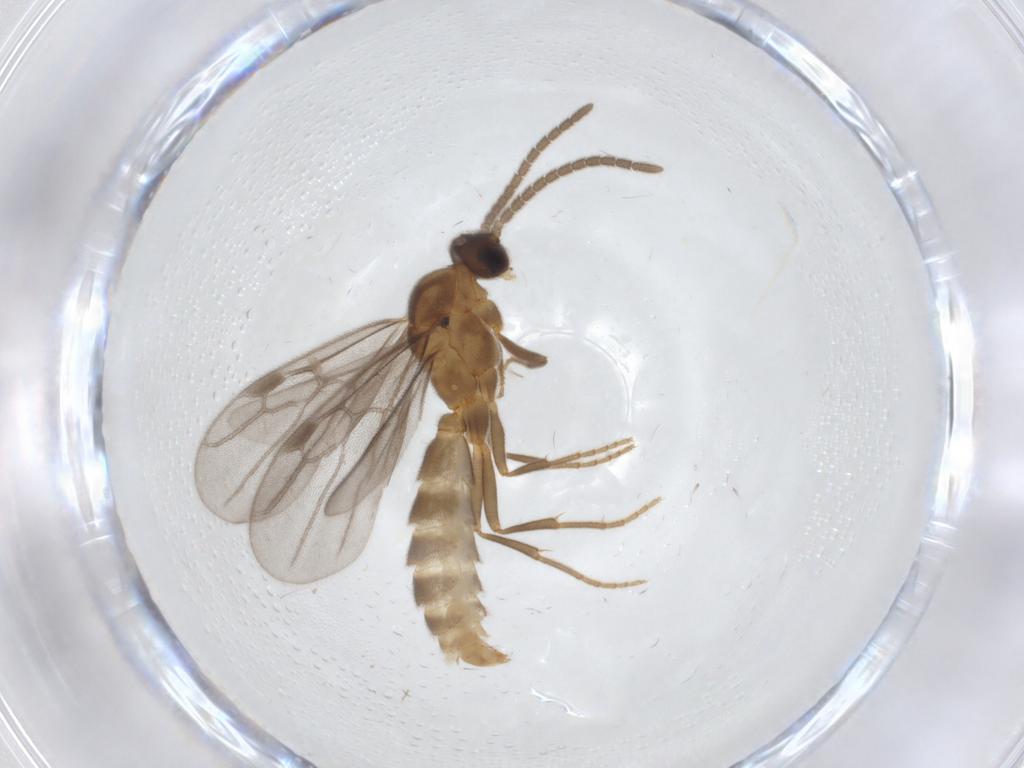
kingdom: Animalia
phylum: Arthropoda
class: Insecta
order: Hymenoptera
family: Formicidae
